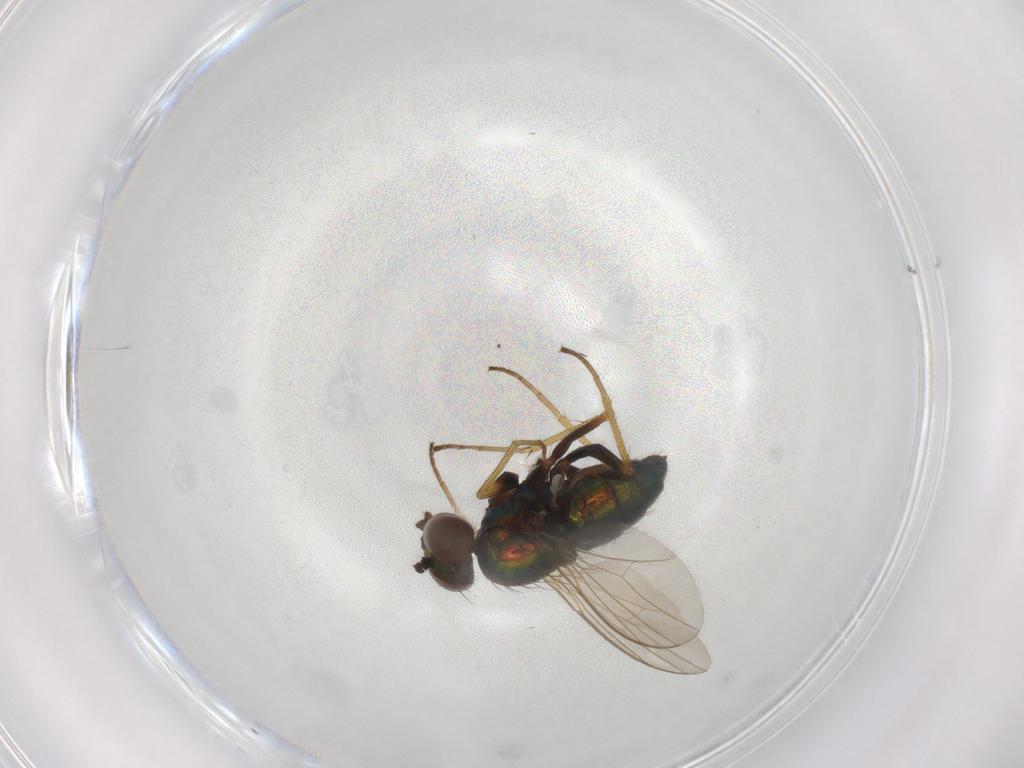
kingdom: Animalia
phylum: Arthropoda
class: Insecta
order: Diptera
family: Dolichopodidae
